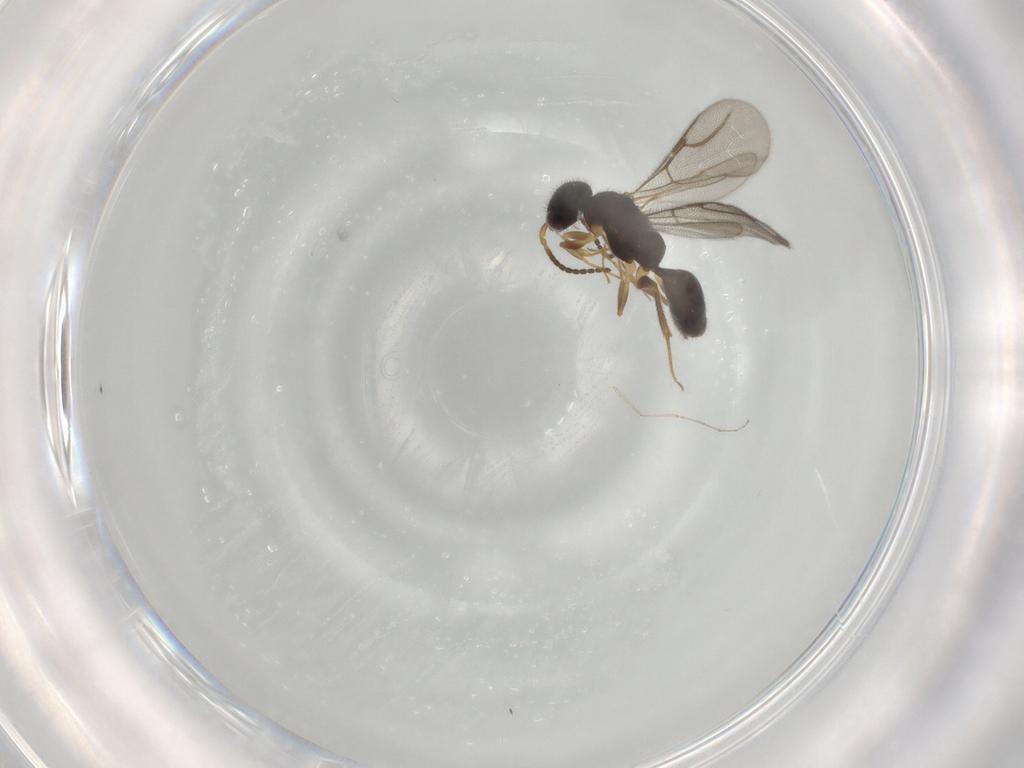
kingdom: Animalia
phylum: Arthropoda
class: Insecta
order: Hymenoptera
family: Bethylidae
